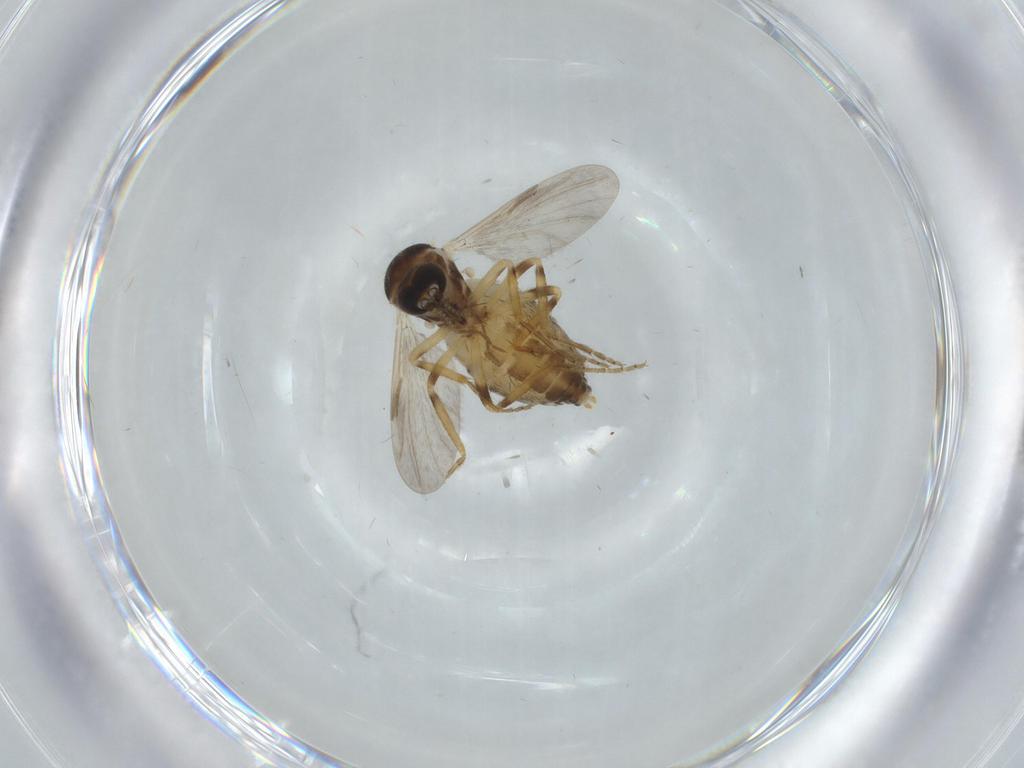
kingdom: Animalia
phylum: Arthropoda
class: Insecta
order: Diptera
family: Ceratopogonidae
